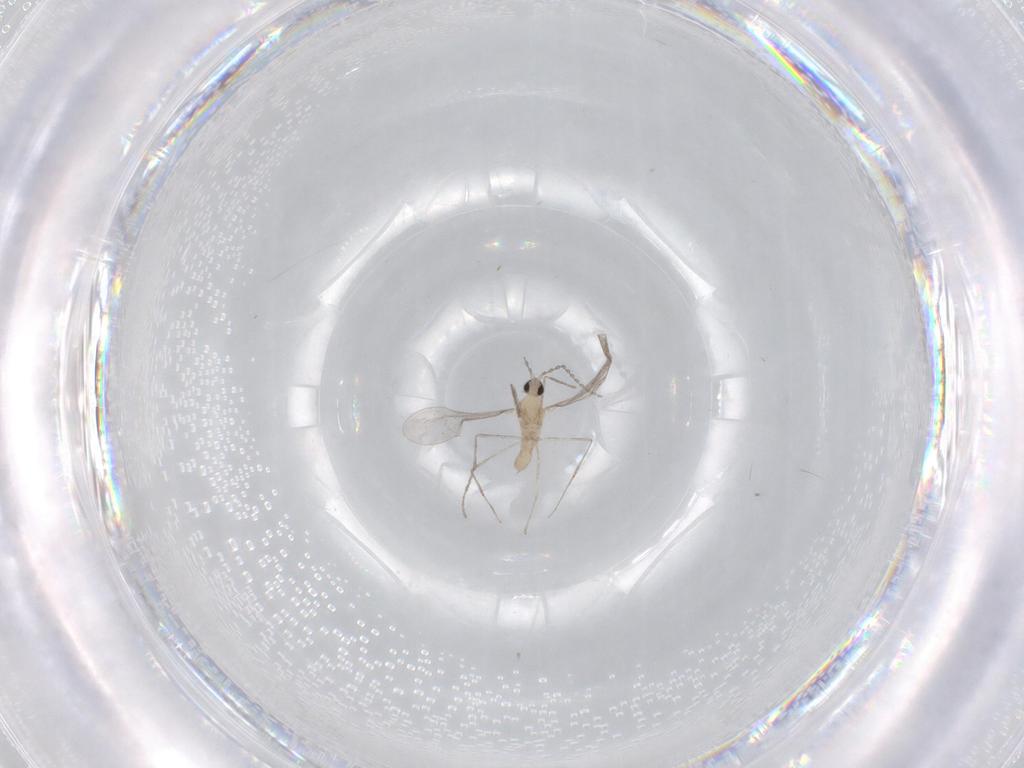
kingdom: Animalia
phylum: Arthropoda
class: Insecta
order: Diptera
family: Cecidomyiidae
